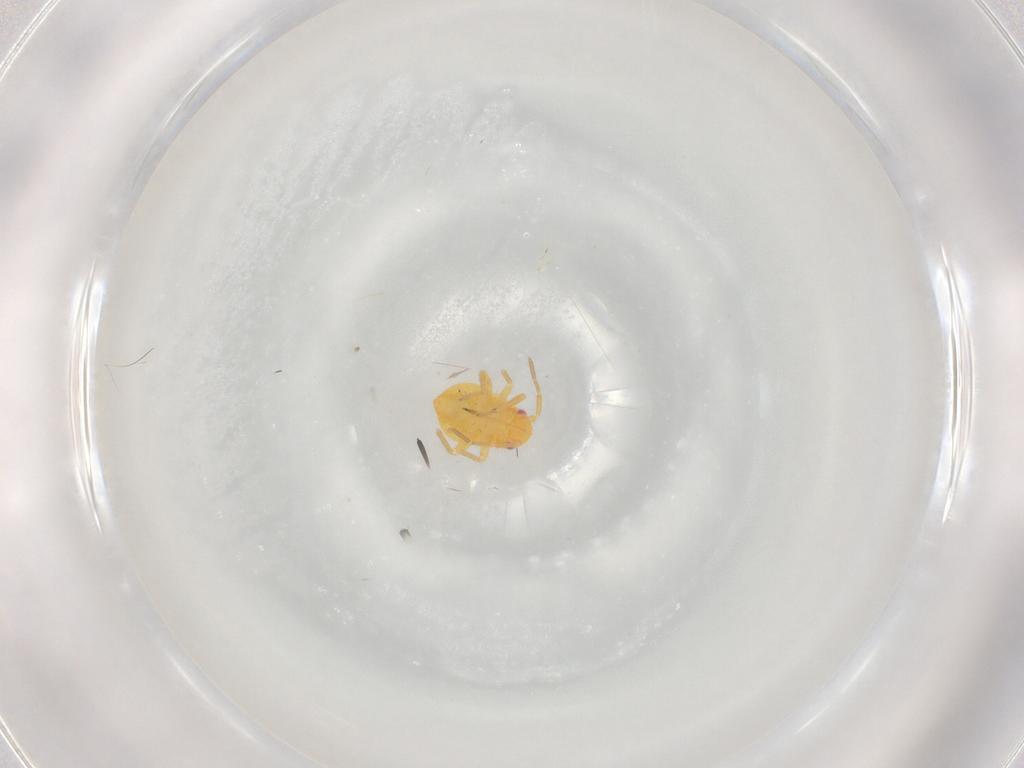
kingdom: Animalia
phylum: Arthropoda
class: Insecta
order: Hemiptera
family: Miridae
